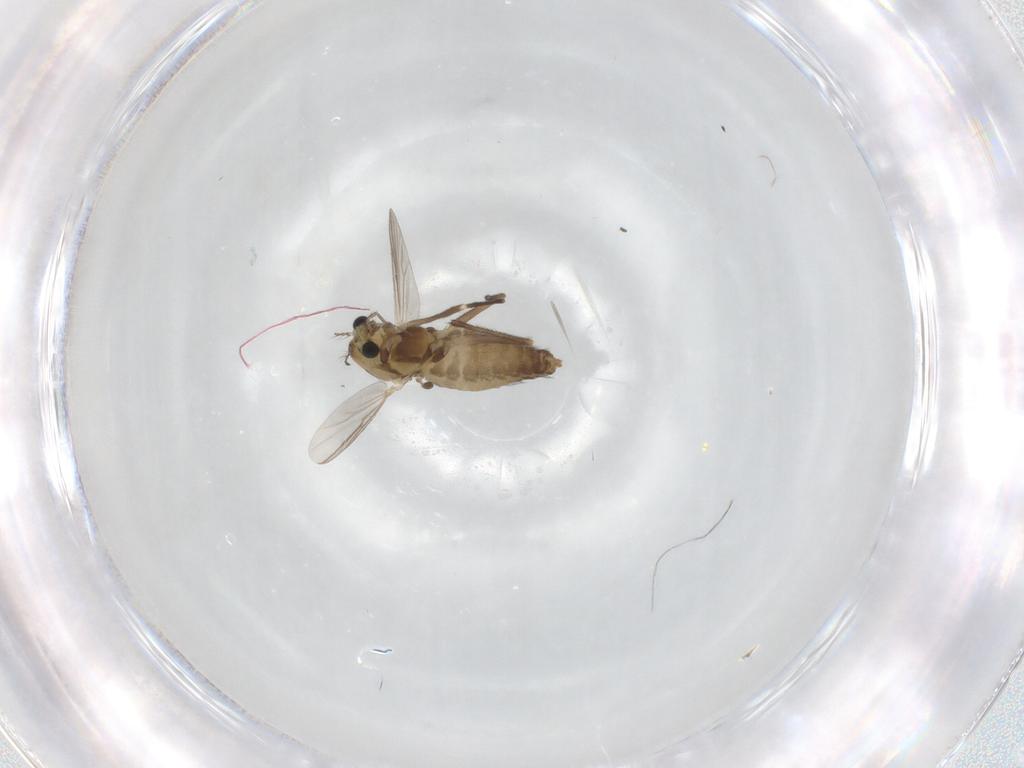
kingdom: Animalia
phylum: Arthropoda
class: Insecta
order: Diptera
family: Chironomidae
